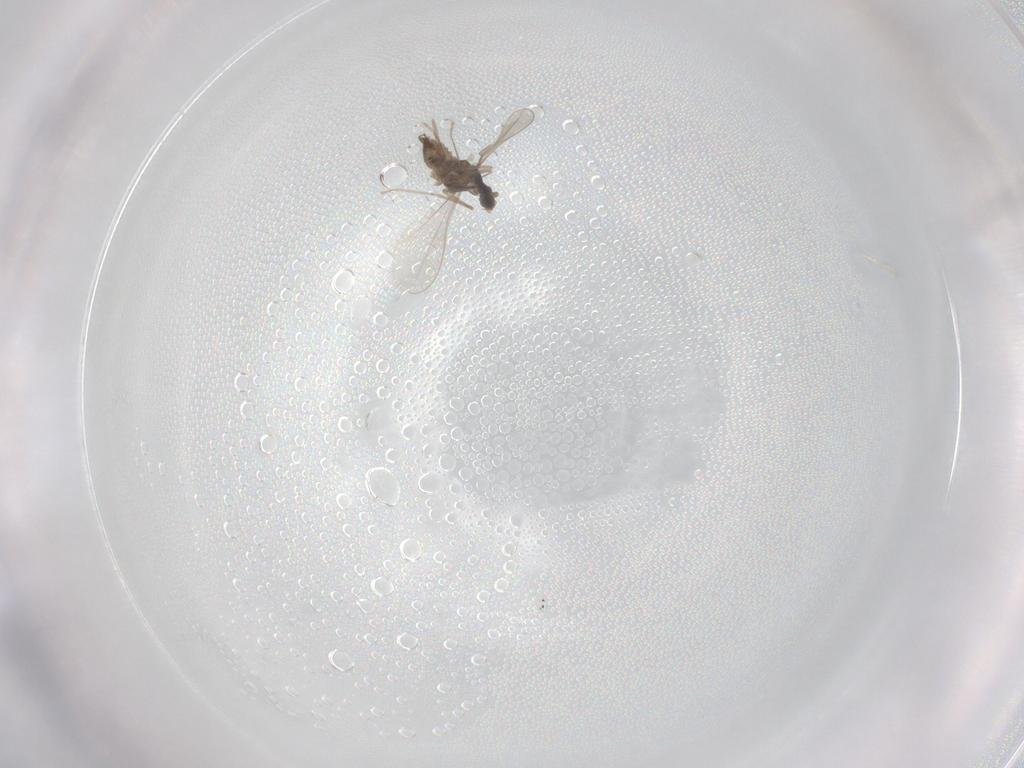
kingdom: Animalia
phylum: Arthropoda
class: Insecta
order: Diptera
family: Cecidomyiidae
